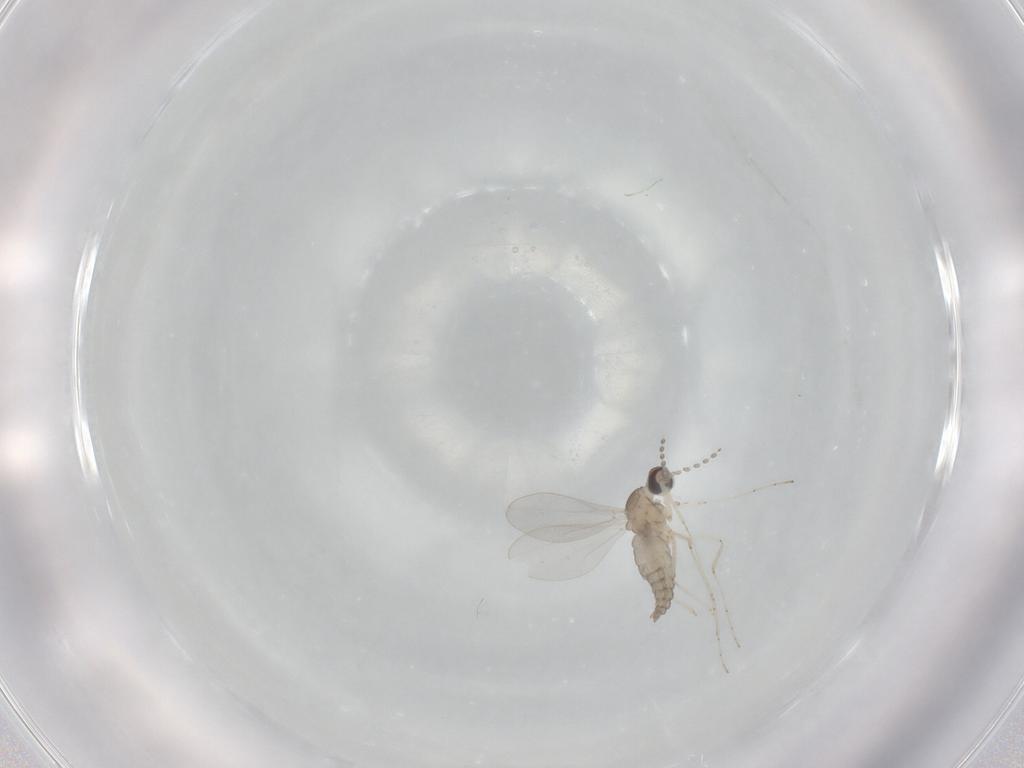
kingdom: Animalia
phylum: Arthropoda
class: Insecta
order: Diptera
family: Cecidomyiidae
